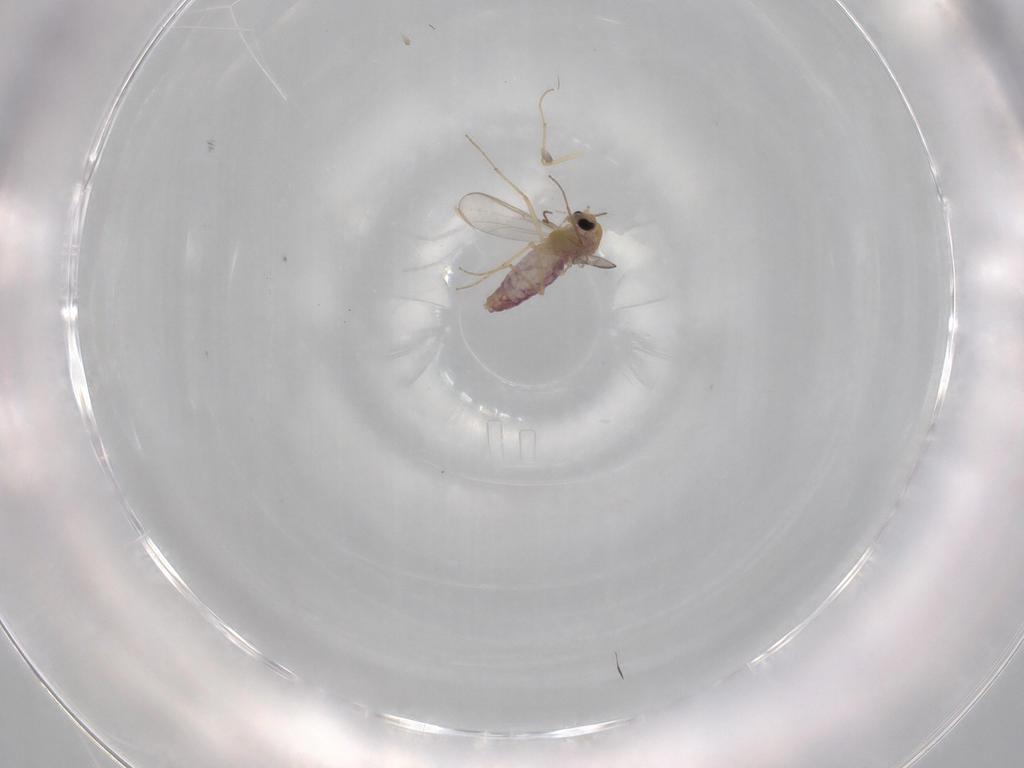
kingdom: Animalia
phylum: Arthropoda
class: Insecta
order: Diptera
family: Chironomidae
